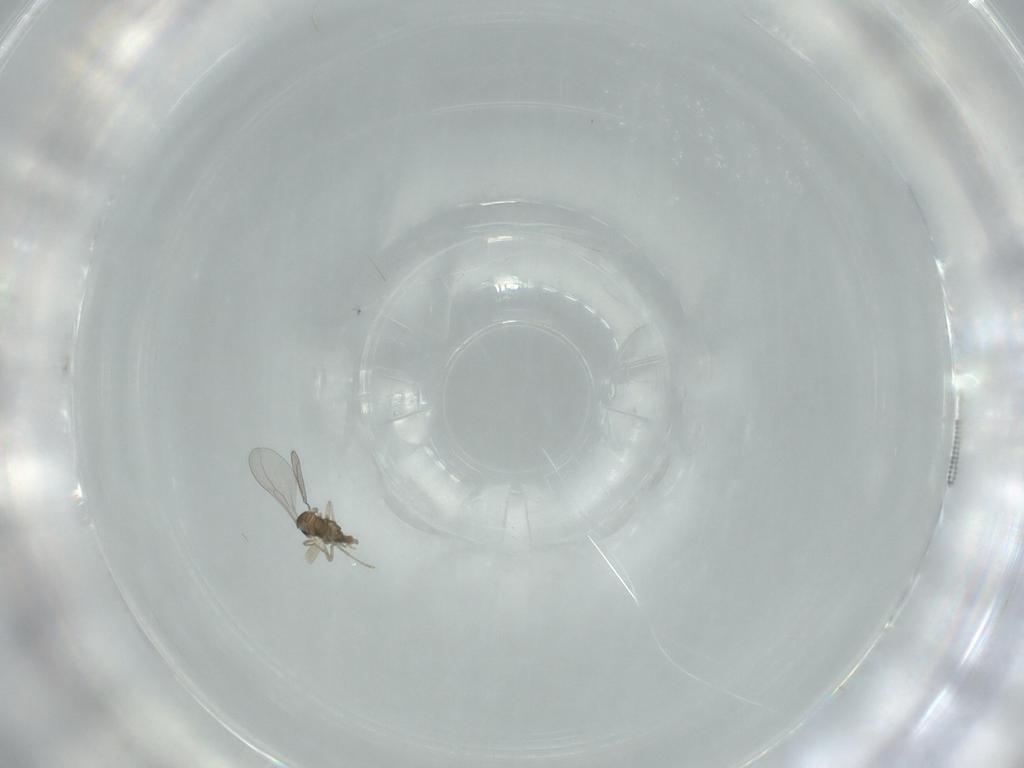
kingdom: Animalia
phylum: Arthropoda
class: Insecta
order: Diptera
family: Cecidomyiidae
